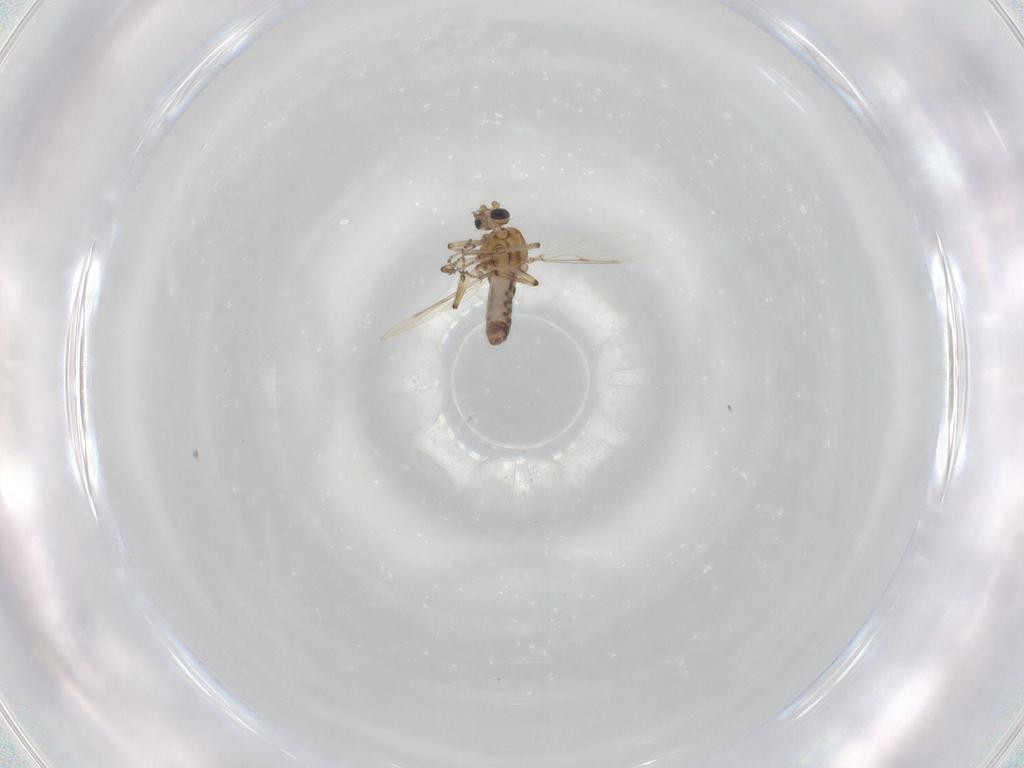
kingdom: Animalia
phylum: Arthropoda
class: Insecta
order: Diptera
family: Ceratopogonidae
